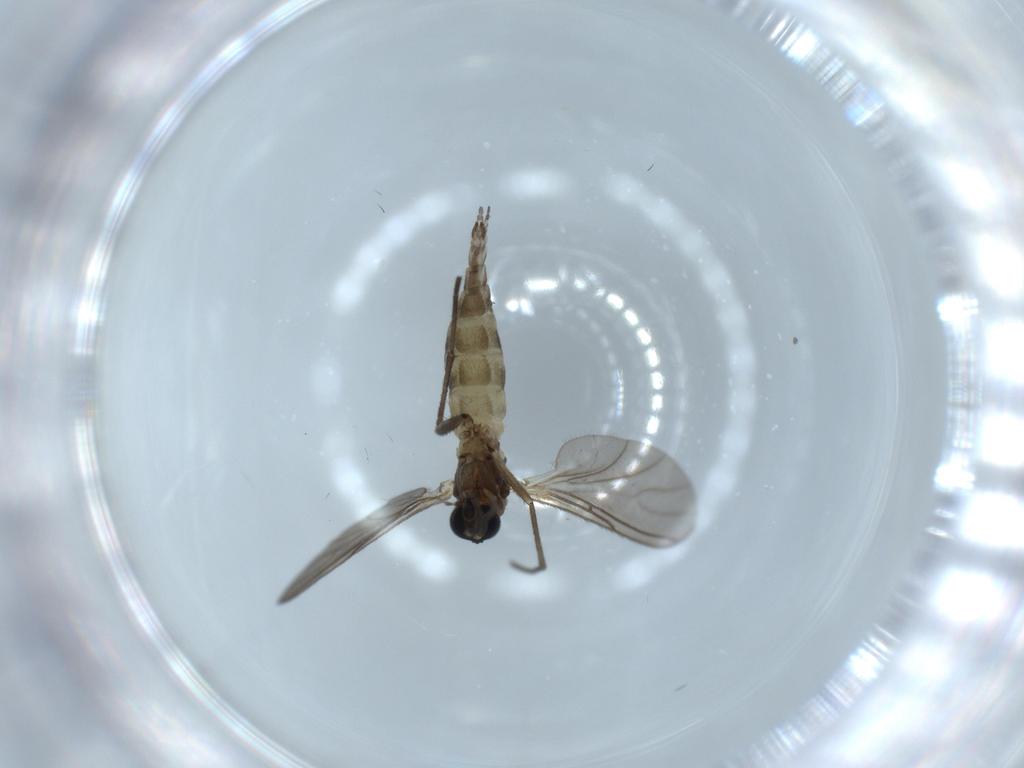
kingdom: Animalia
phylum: Arthropoda
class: Insecta
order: Diptera
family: Sciaridae
